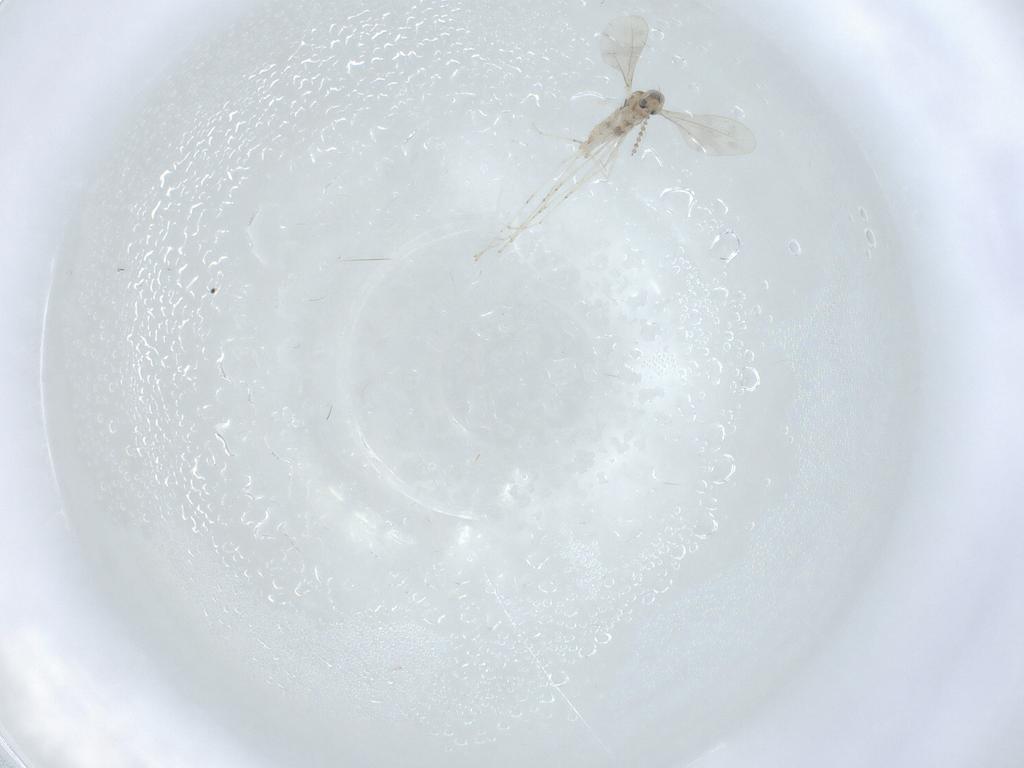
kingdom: Animalia
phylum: Arthropoda
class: Insecta
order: Diptera
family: Cecidomyiidae
